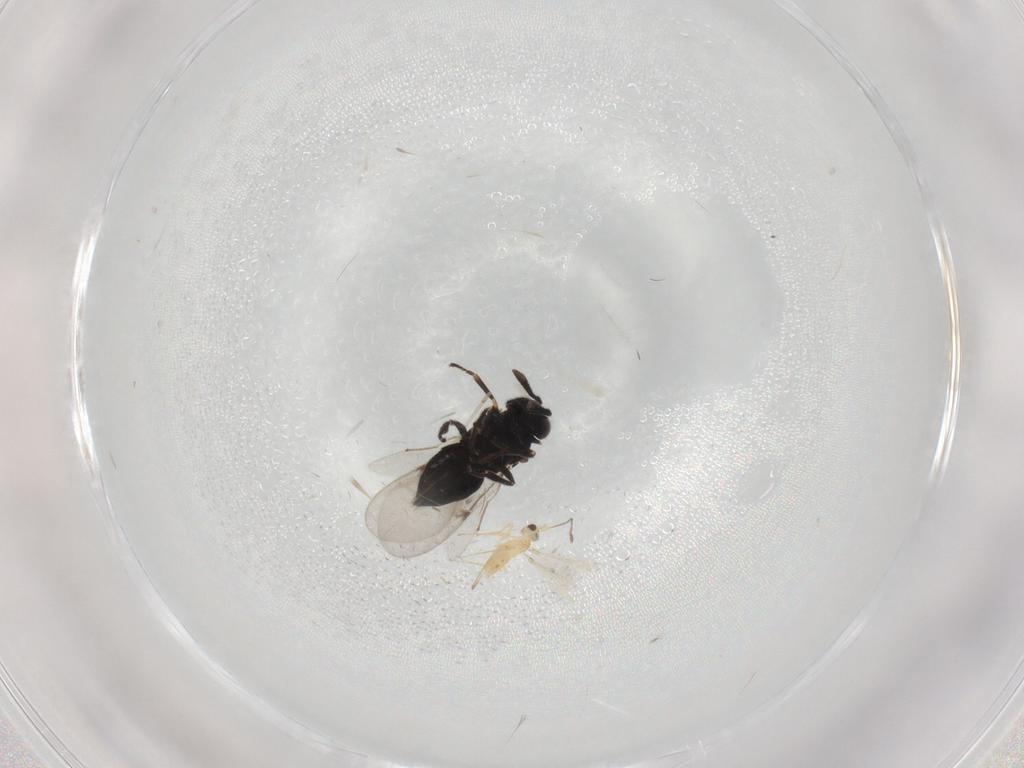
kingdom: Animalia
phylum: Arthropoda
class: Insecta
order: Hymenoptera
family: Encyrtidae
